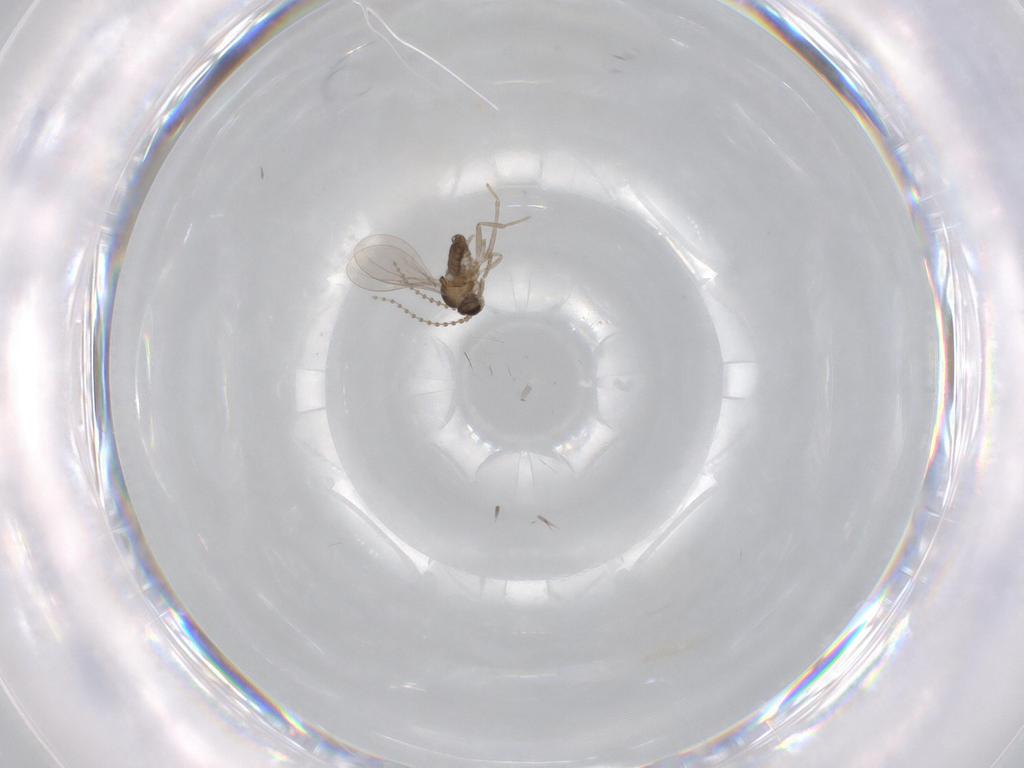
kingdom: Animalia
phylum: Arthropoda
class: Insecta
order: Diptera
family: Cecidomyiidae
